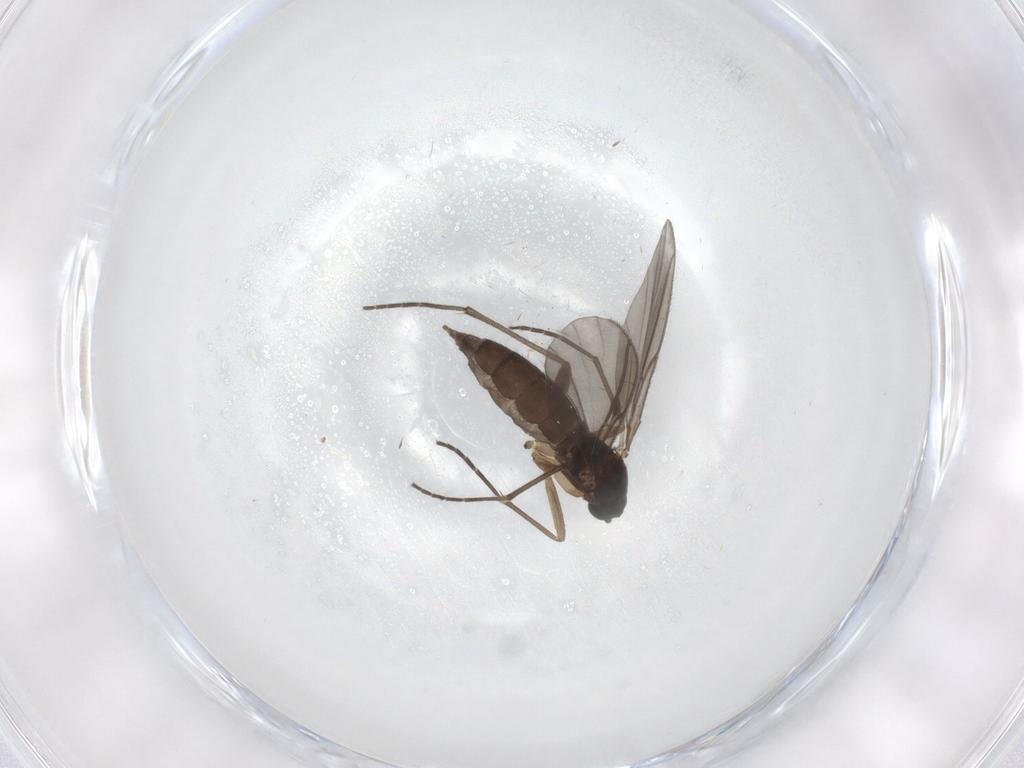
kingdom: Animalia
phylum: Arthropoda
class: Insecta
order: Diptera
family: Sciaridae
